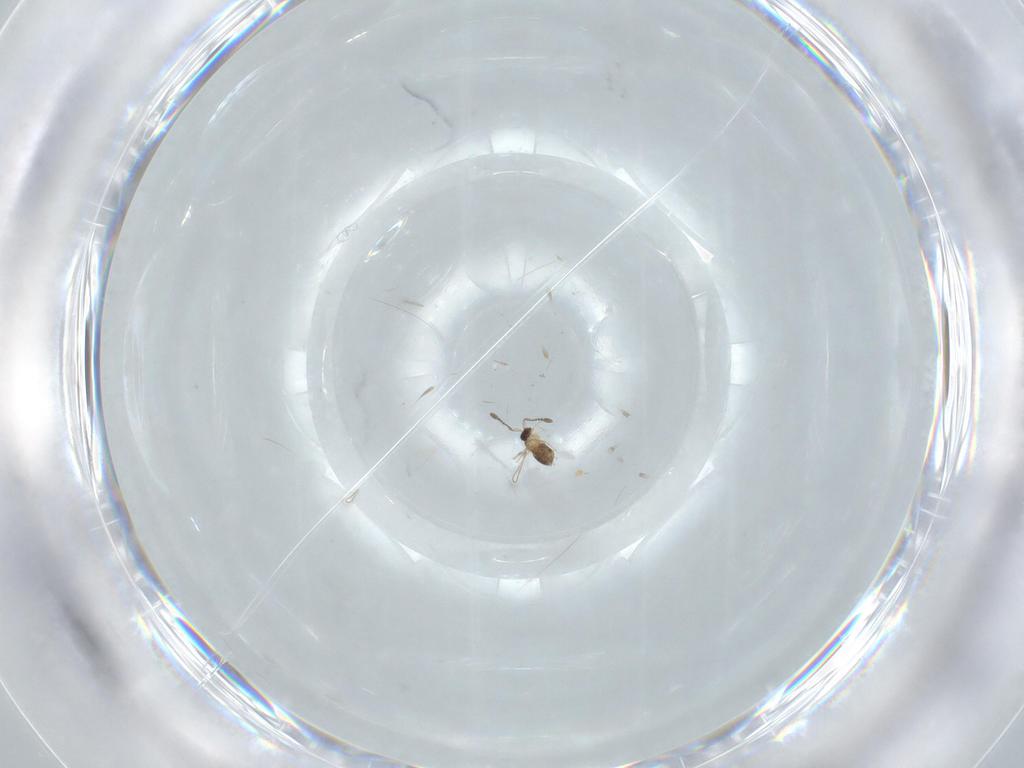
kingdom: Animalia
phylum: Arthropoda
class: Insecta
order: Hymenoptera
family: Mymaridae
